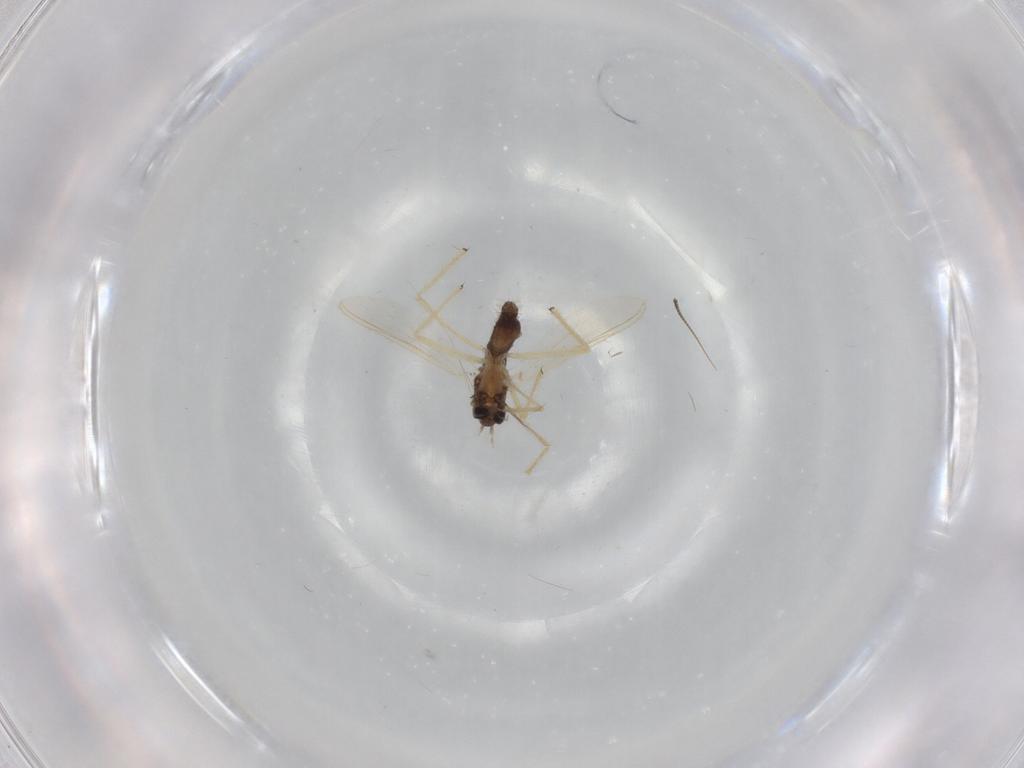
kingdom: Animalia
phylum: Arthropoda
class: Insecta
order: Diptera
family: Chironomidae
